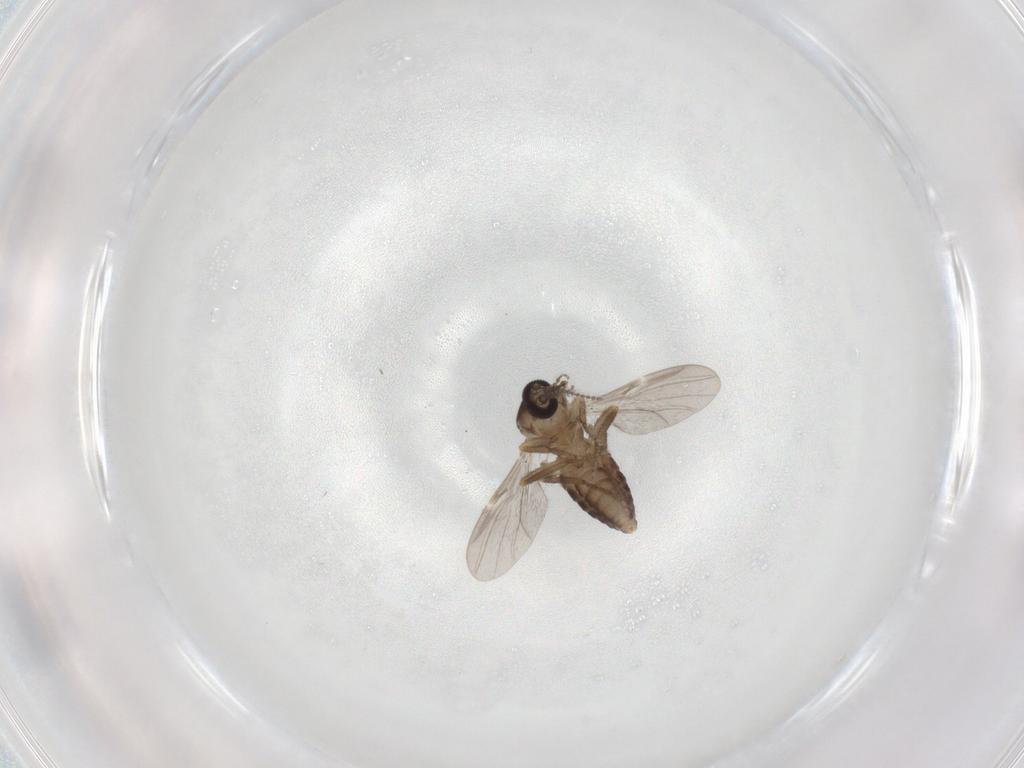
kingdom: Animalia
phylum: Arthropoda
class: Insecta
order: Diptera
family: Ceratopogonidae
